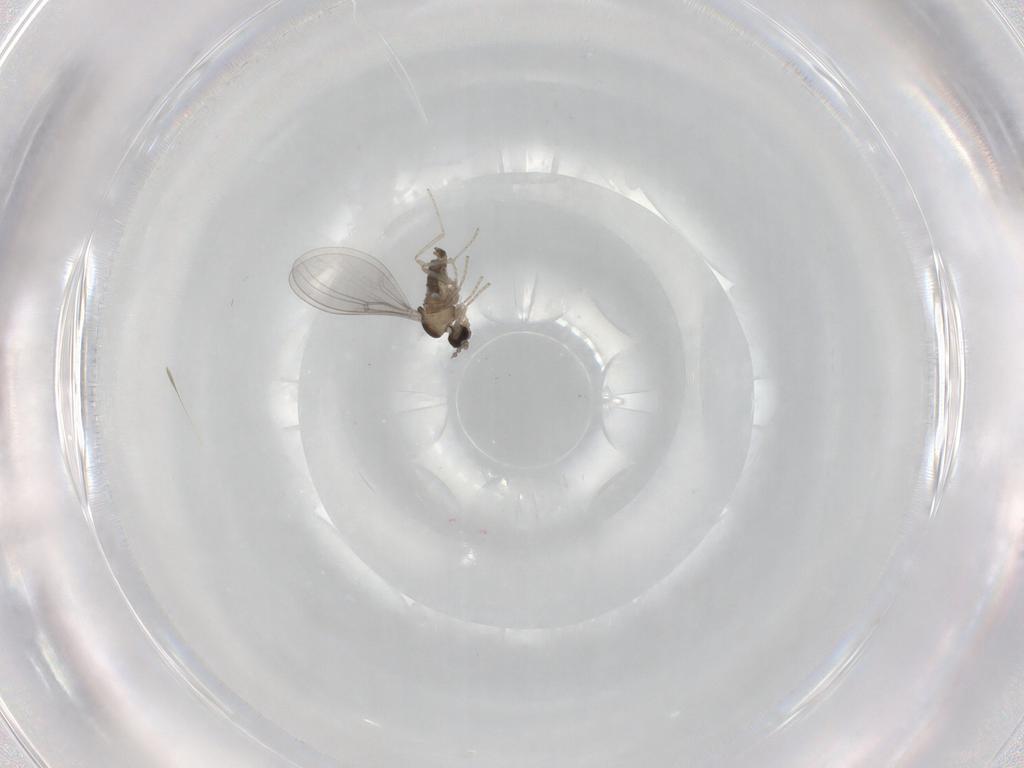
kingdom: Animalia
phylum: Arthropoda
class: Insecta
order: Diptera
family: Cecidomyiidae
